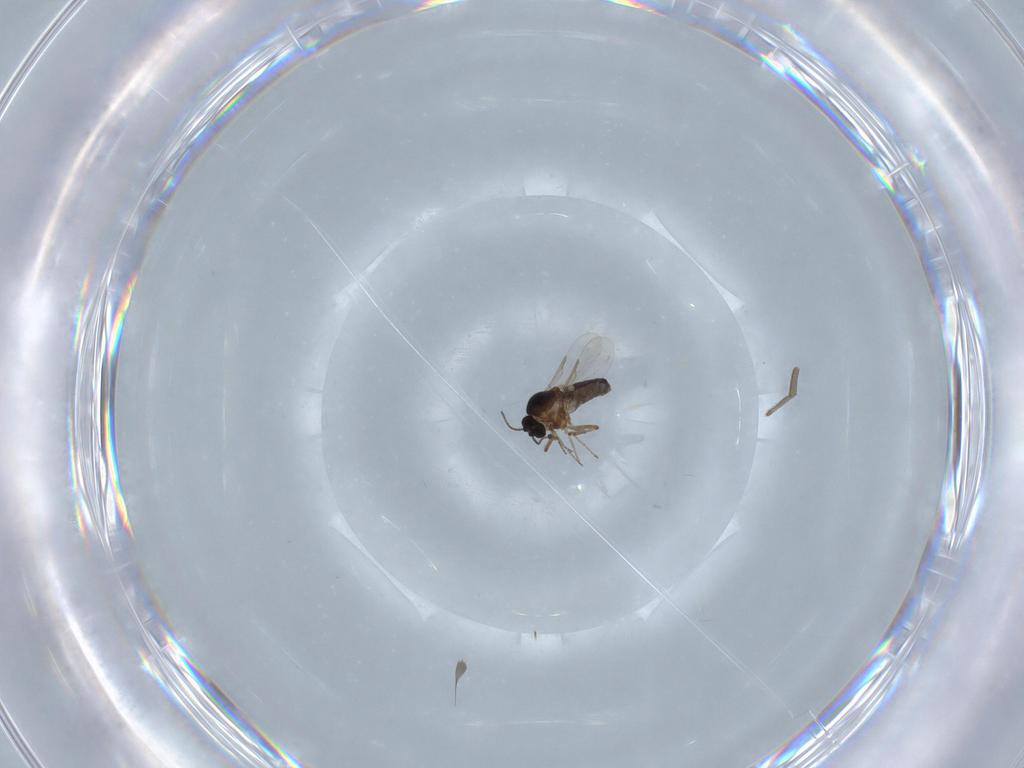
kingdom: Animalia
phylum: Arthropoda
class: Insecta
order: Diptera
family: Ceratopogonidae
